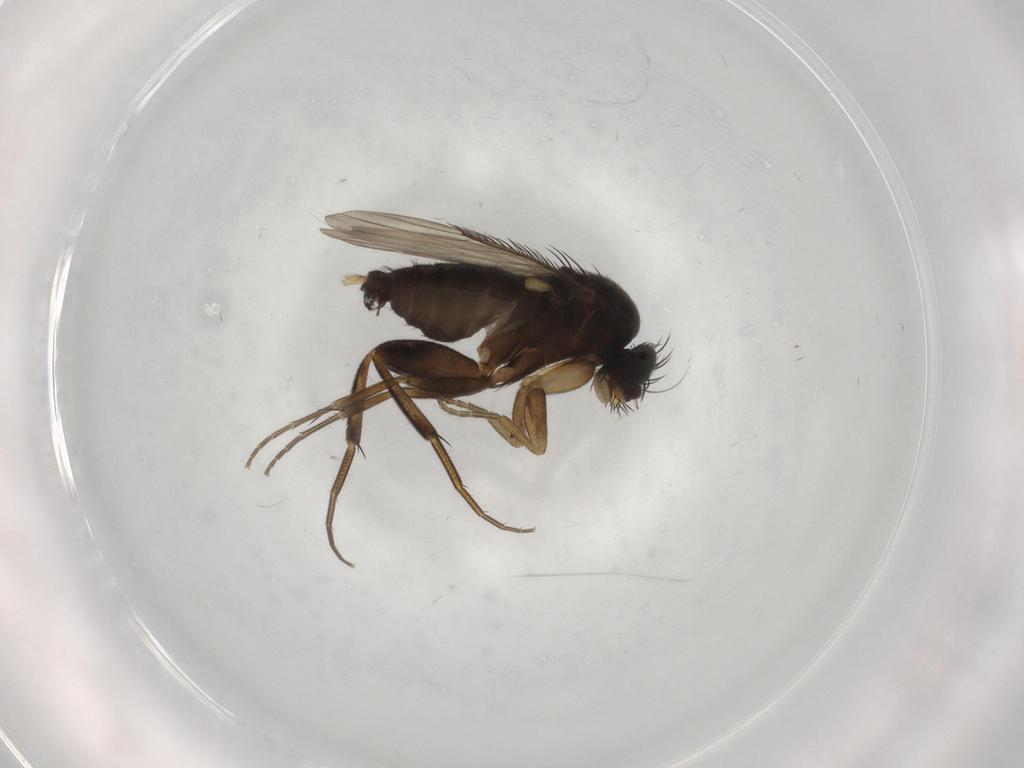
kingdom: Animalia
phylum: Arthropoda
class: Insecta
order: Diptera
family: Phoridae
